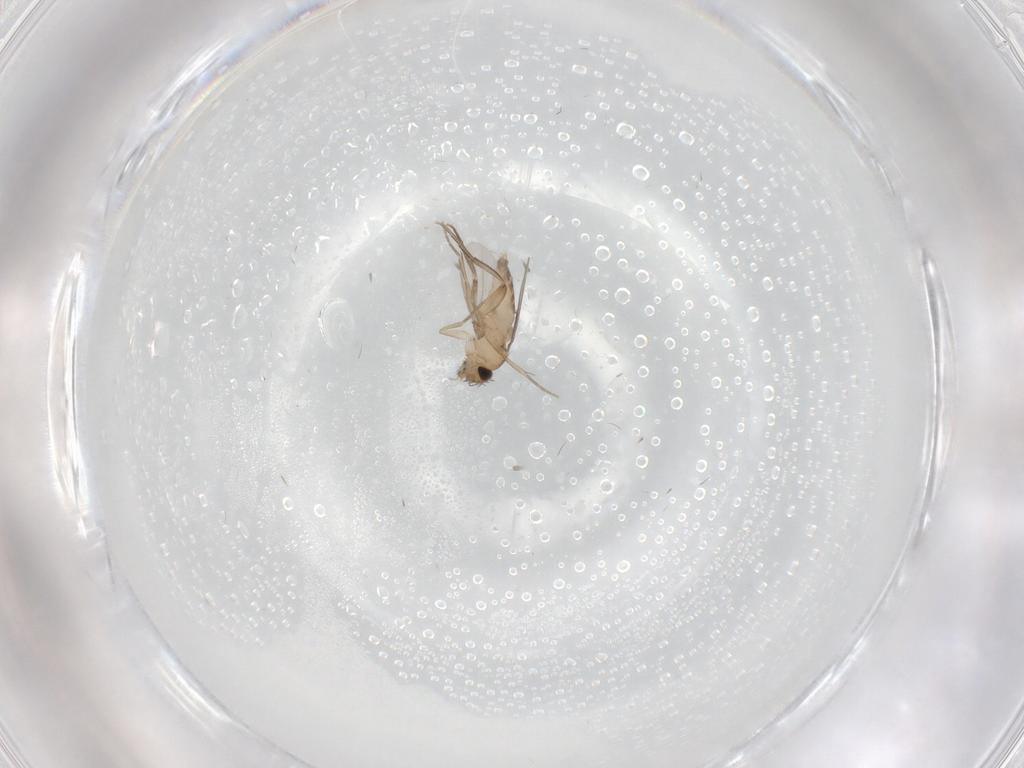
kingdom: Animalia
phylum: Arthropoda
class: Insecta
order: Diptera
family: Phoridae
